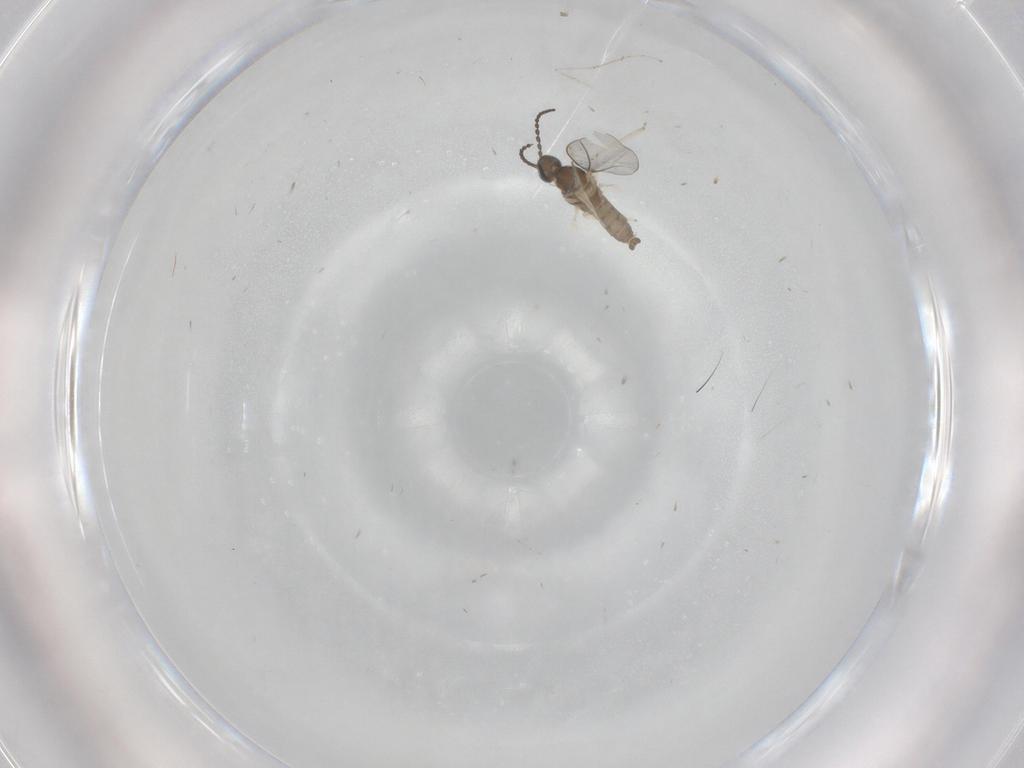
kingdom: Animalia
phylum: Arthropoda
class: Insecta
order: Diptera
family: Cecidomyiidae
